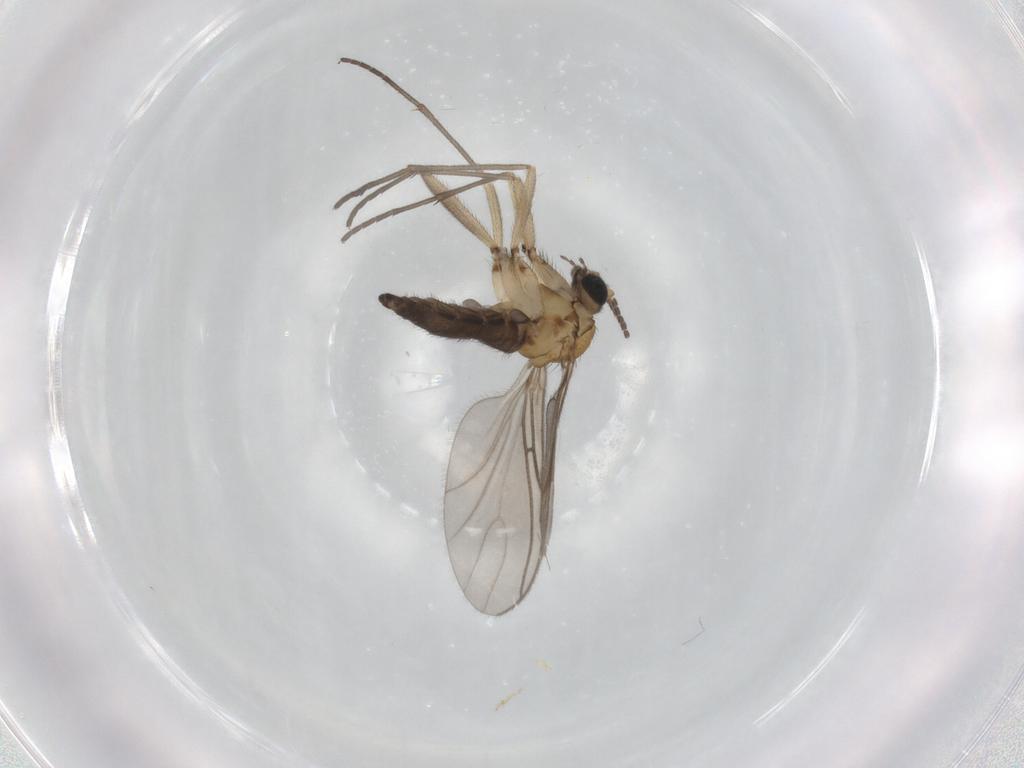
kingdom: Animalia
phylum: Arthropoda
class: Insecta
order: Diptera
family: Sciaridae
